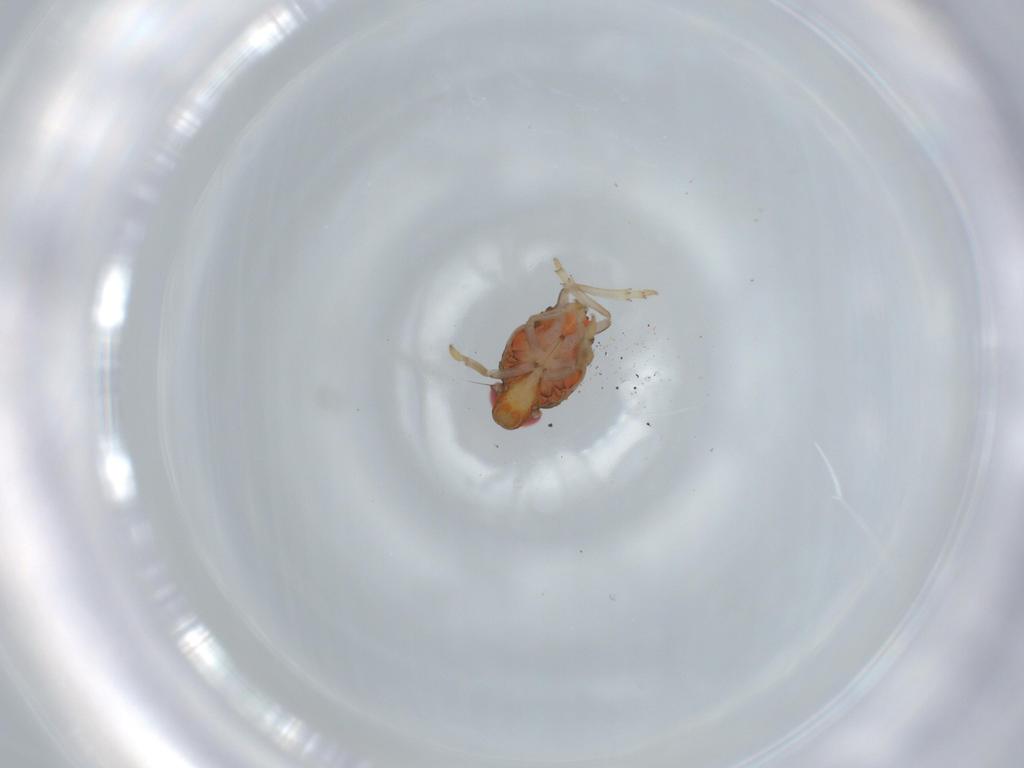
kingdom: Animalia
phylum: Arthropoda
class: Insecta
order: Hemiptera
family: Issidae
